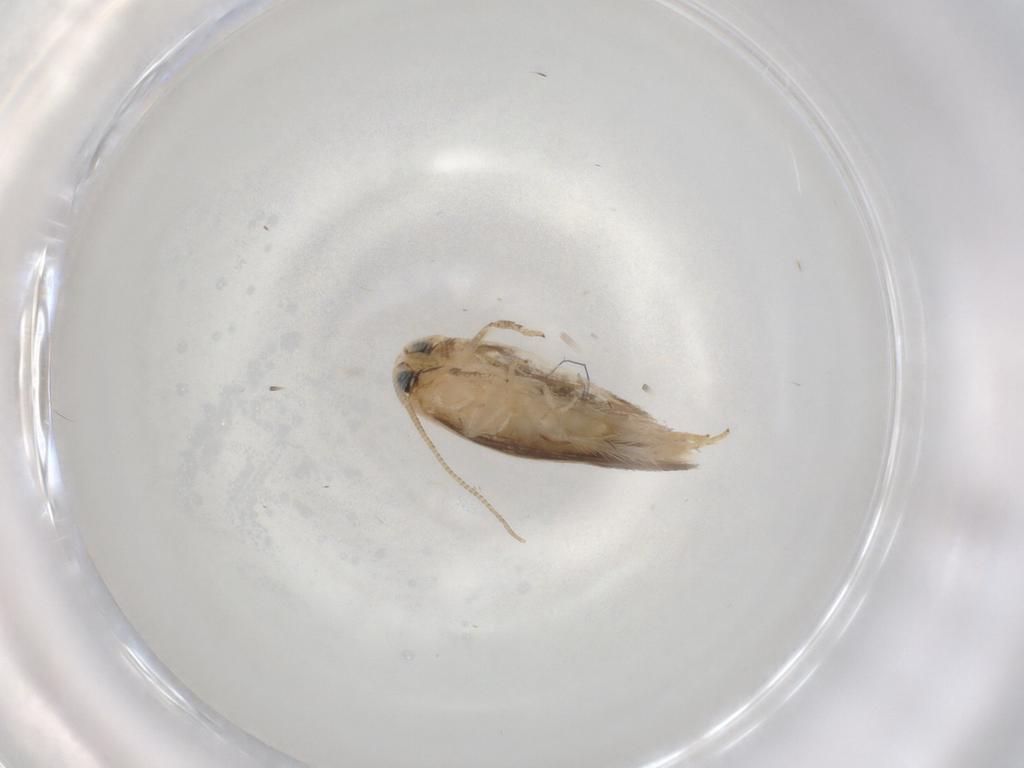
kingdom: Animalia
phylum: Arthropoda
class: Insecta
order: Lepidoptera
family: Opostegidae
